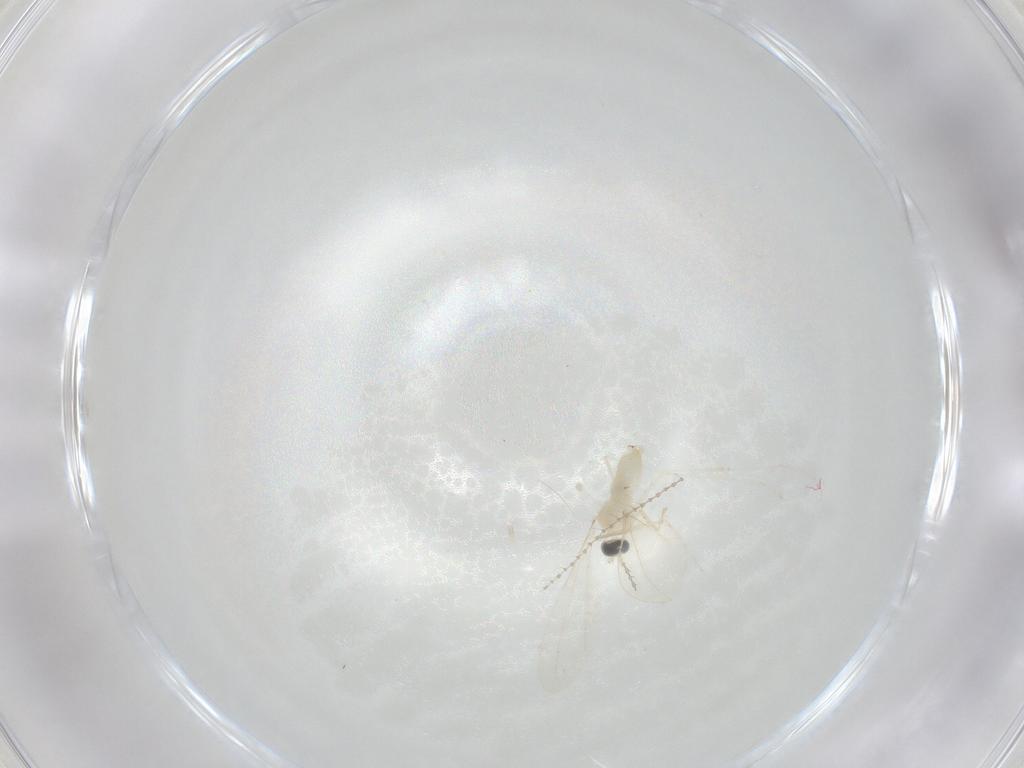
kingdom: Animalia
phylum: Arthropoda
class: Insecta
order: Diptera
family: Cecidomyiidae
